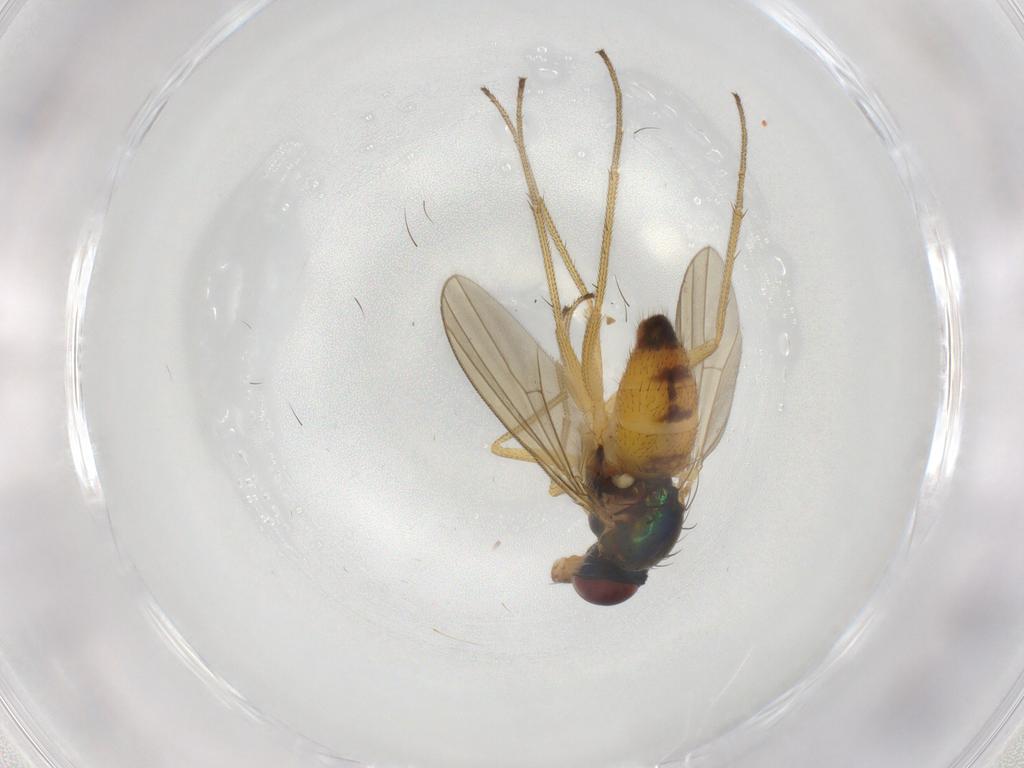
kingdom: Animalia
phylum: Arthropoda
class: Insecta
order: Diptera
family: Dolichopodidae
